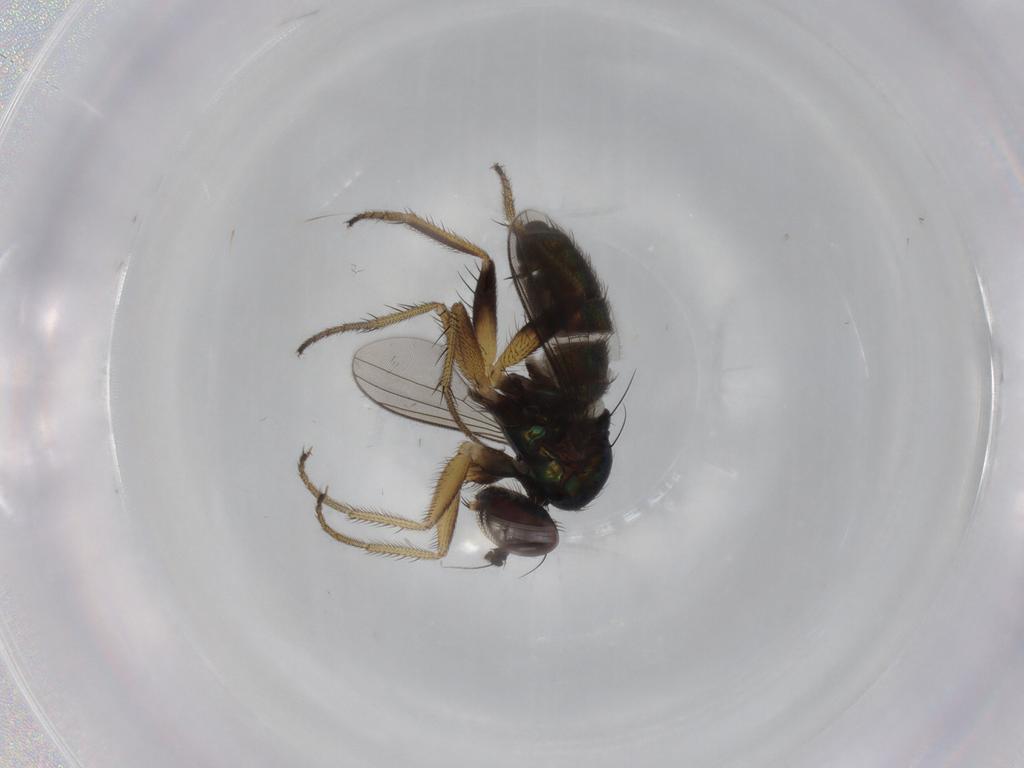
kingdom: Animalia
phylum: Arthropoda
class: Insecta
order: Diptera
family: Dolichopodidae
